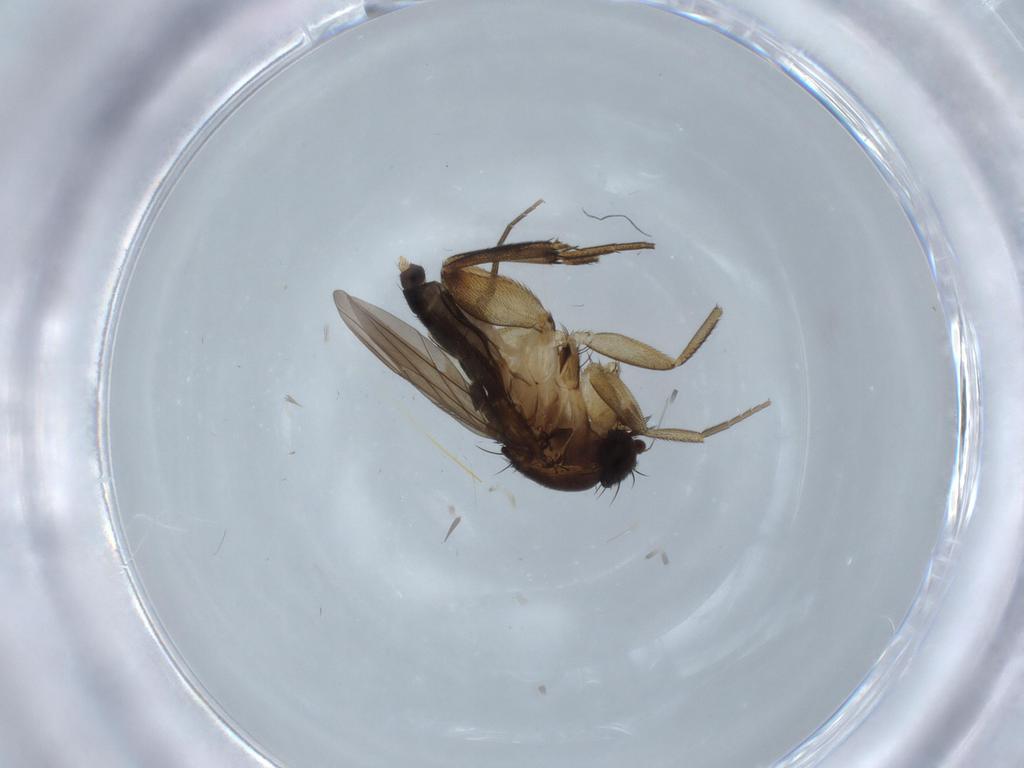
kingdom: Animalia
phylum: Arthropoda
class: Insecta
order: Diptera
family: Phoridae
